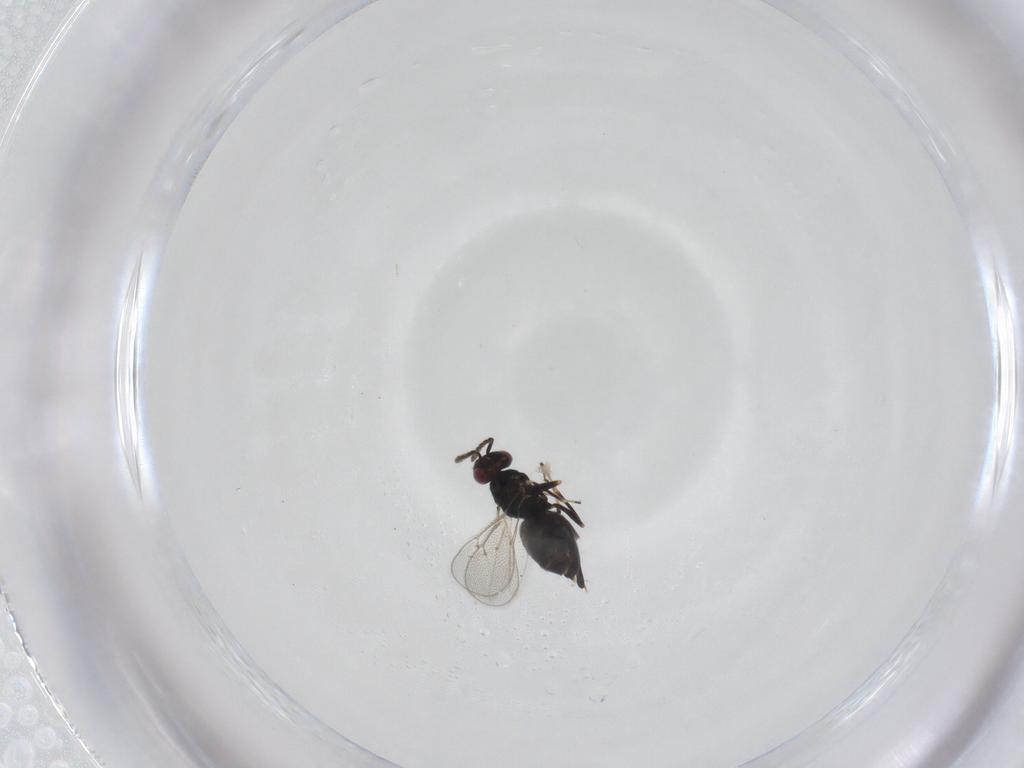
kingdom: Animalia
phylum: Arthropoda
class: Insecta
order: Hymenoptera
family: Eulophidae
